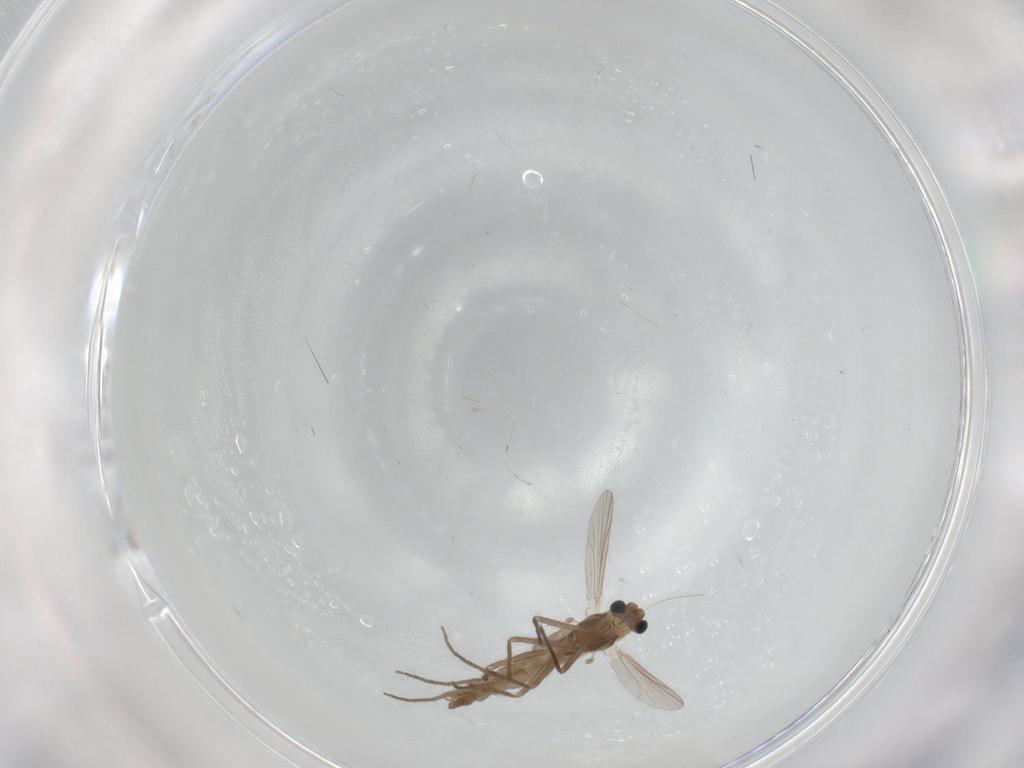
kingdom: Animalia
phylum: Arthropoda
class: Insecta
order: Diptera
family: Chironomidae
